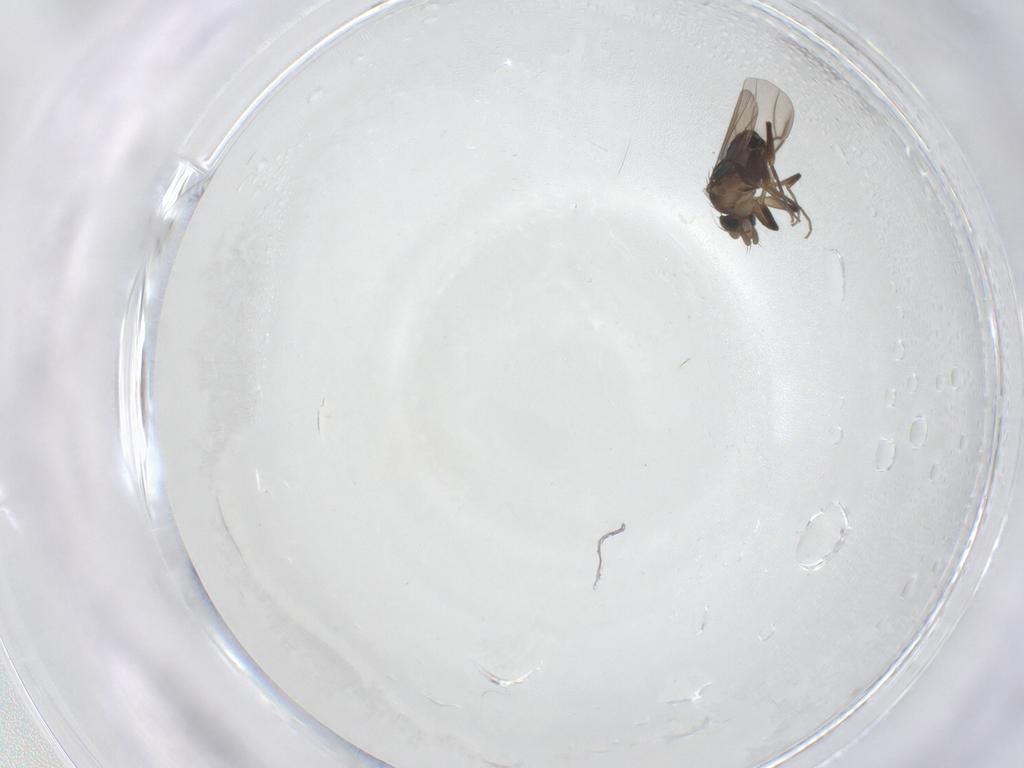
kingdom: Animalia
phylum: Arthropoda
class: Insecta
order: Diptera
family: Phoridae
